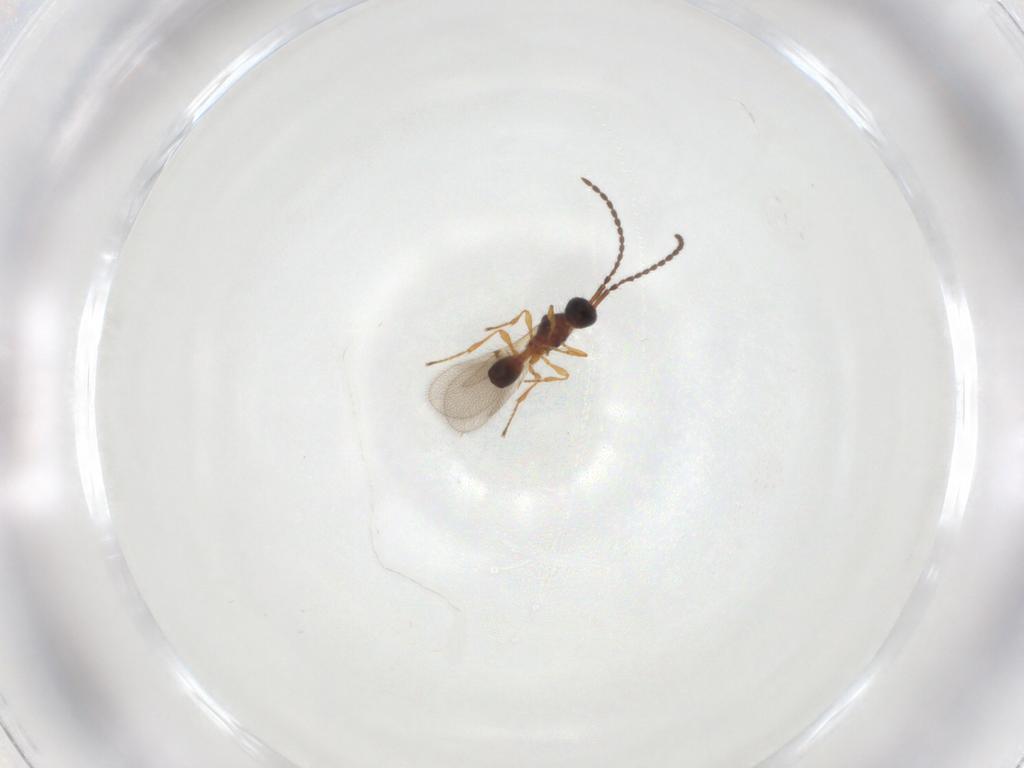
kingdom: Animalia
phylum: Arthropoda
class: Insecta
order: Hymenoptera
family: Diapriidae
